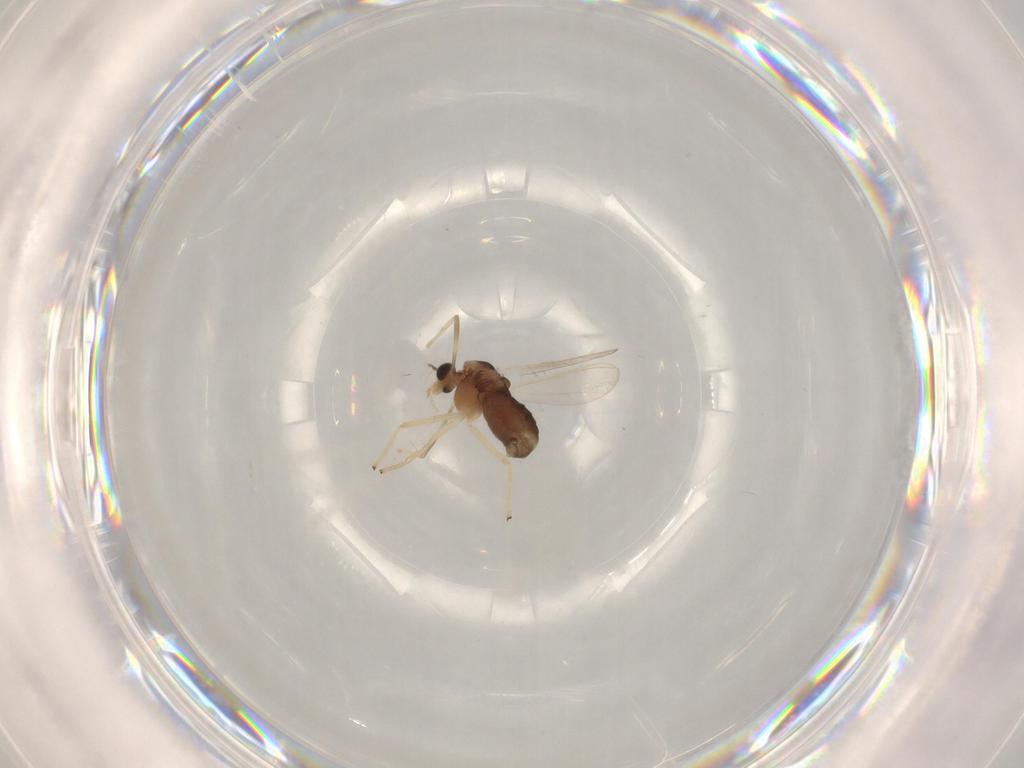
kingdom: Animalia
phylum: Arthropoda
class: Insecta
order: Diptera
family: Chironomidae
